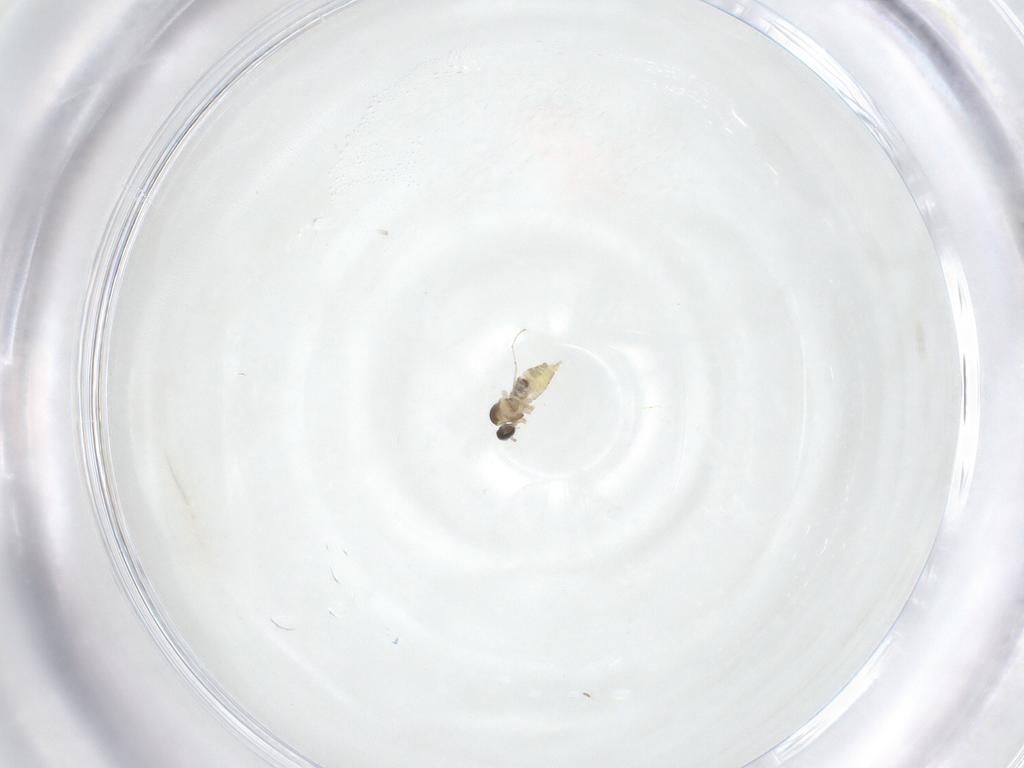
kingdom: Animalia
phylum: Arthropoda
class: Insecta
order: Diptera
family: Cecidomyiidae
